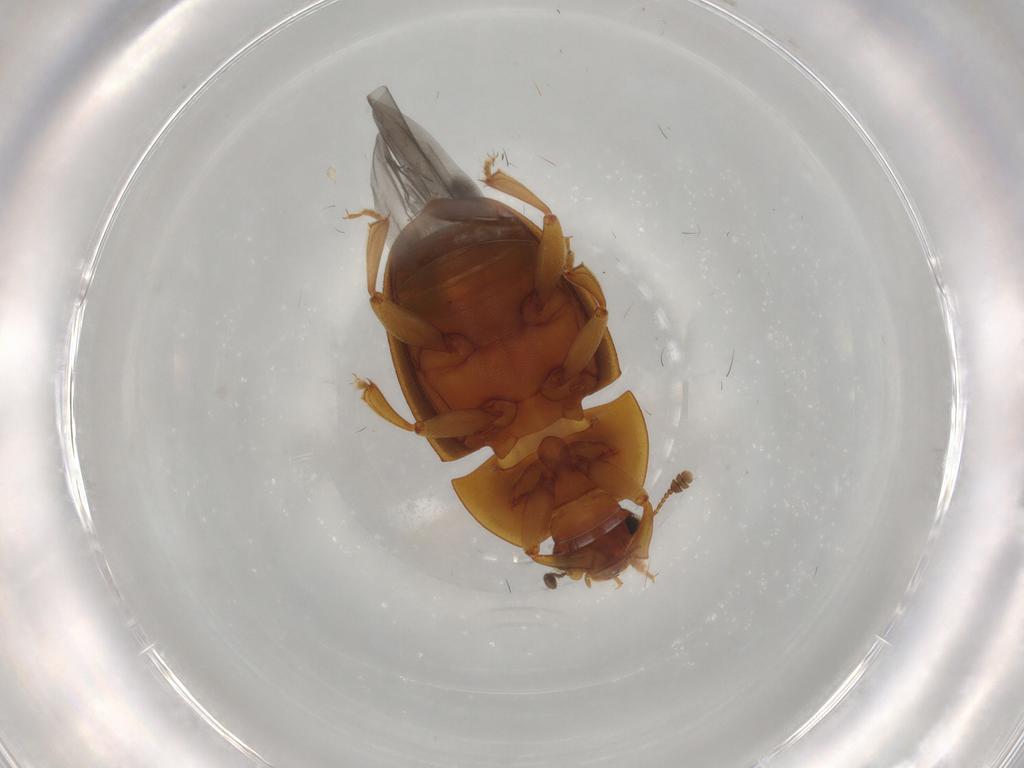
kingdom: Animalia
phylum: Arthropoda
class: Insecta
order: Coleoptera
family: Nitidulidae
